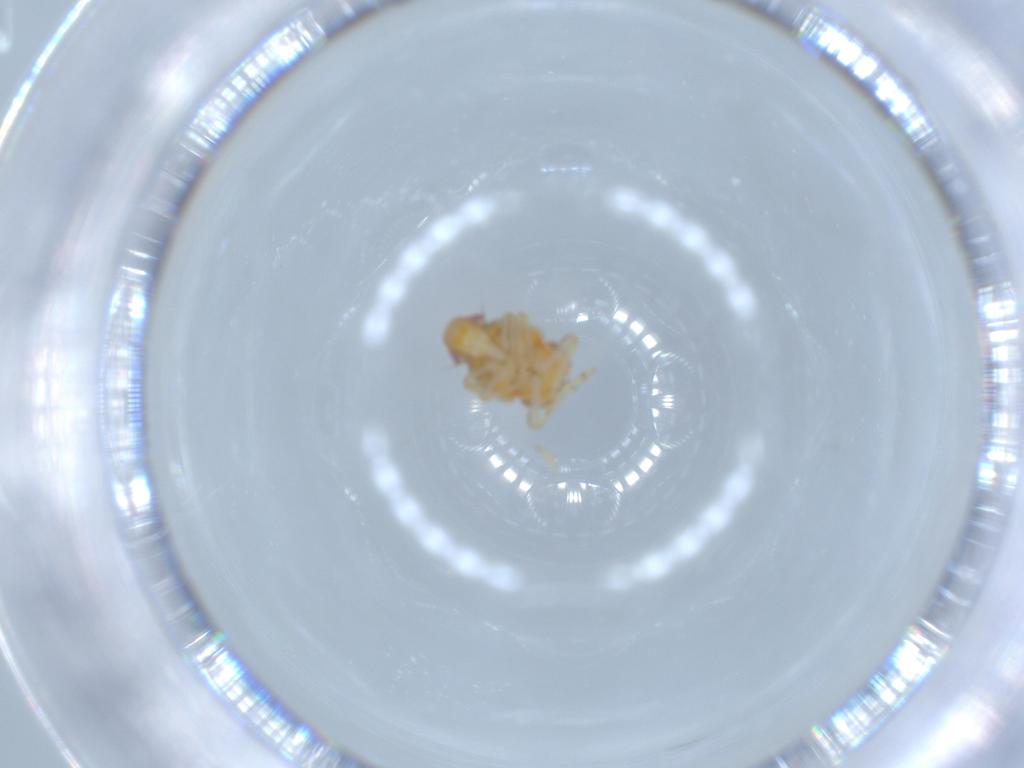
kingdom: Animalia
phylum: Arthropoda
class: Insecta
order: Hemiptera
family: Issidae
